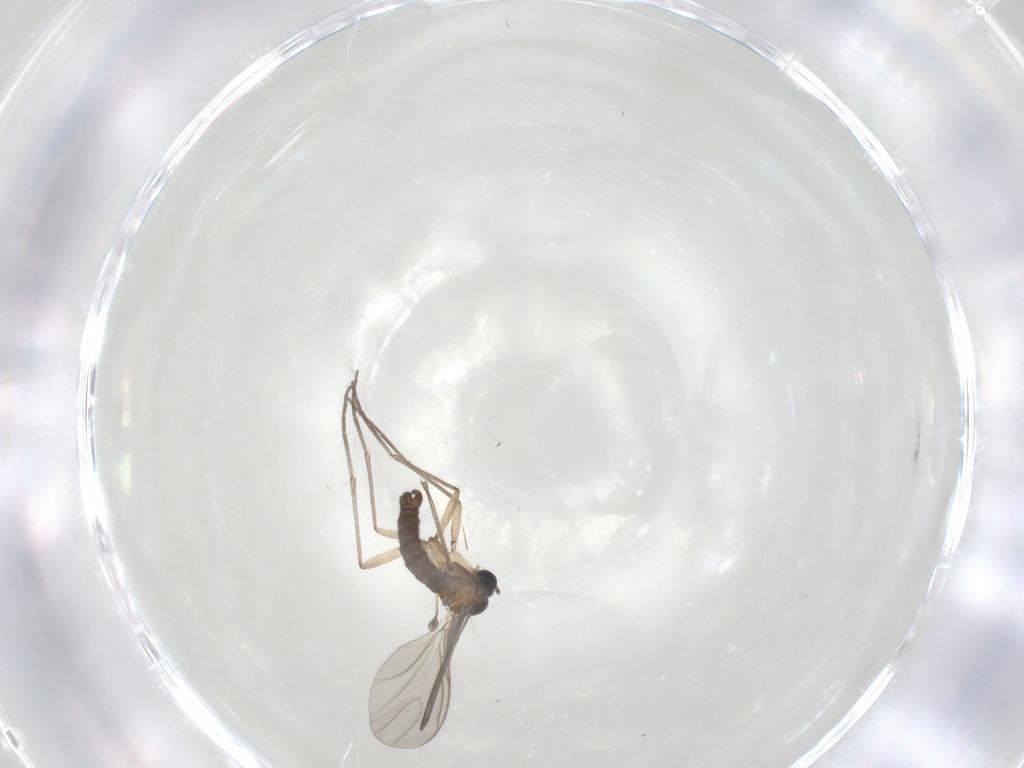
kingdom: Animalia
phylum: Arthropoda
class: Insecta
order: Diptera
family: Sciaridae
